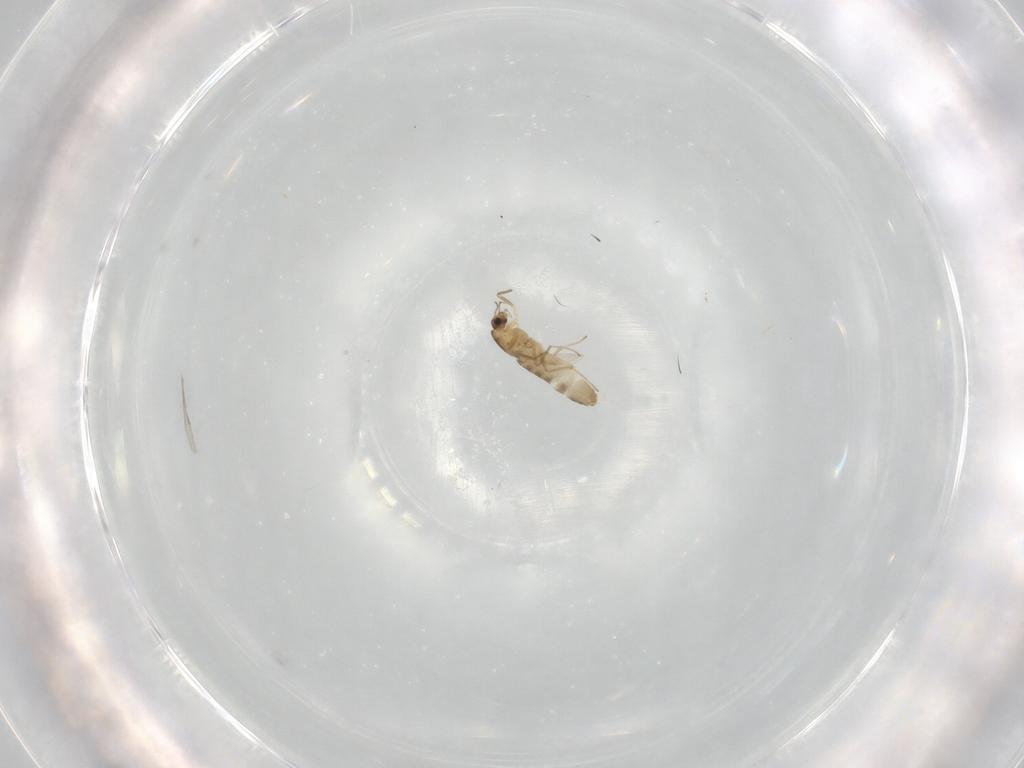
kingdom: Animalia
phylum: Arthropoda
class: Insecta
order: Diptera
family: Chironomidae
